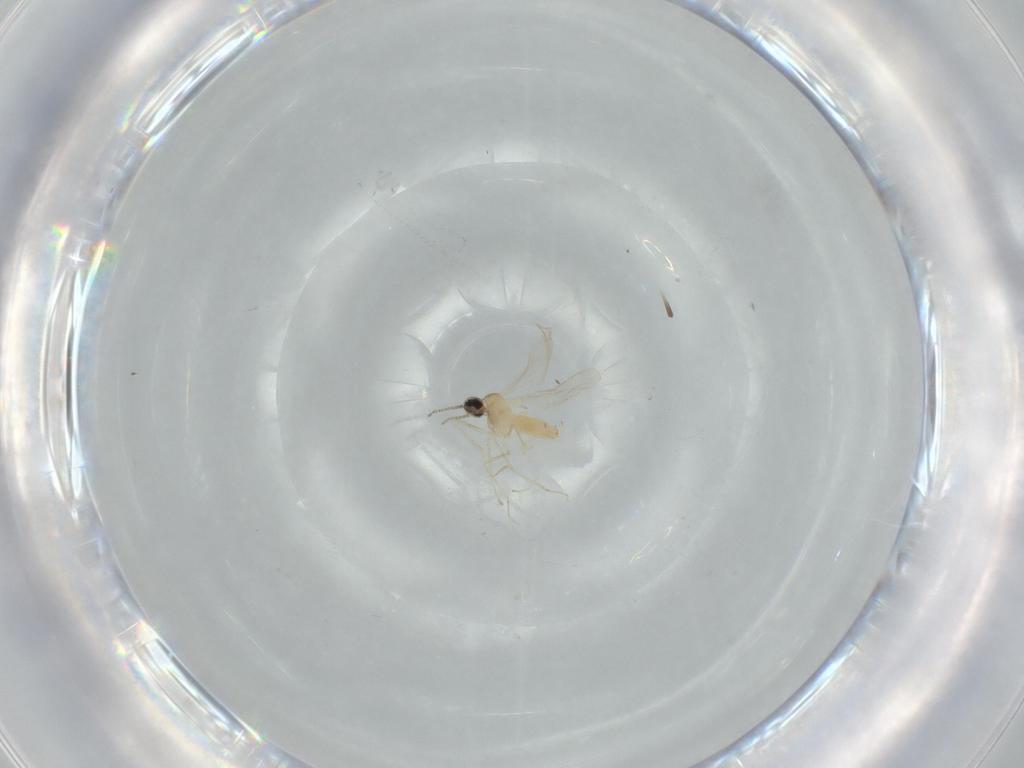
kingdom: Animalia
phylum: Arthropoda
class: Insecta
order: Diptera
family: Cecidomyiidae
